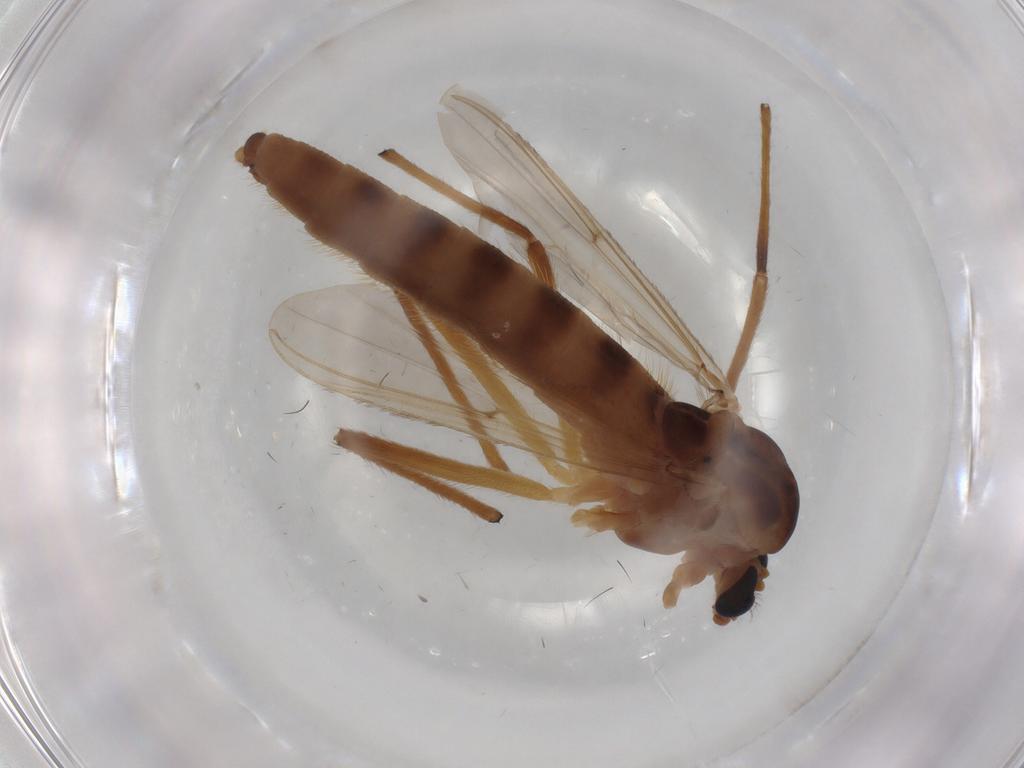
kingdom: Animalia
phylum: Arthropoda
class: Insecta
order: Diptera
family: Chironomidae
